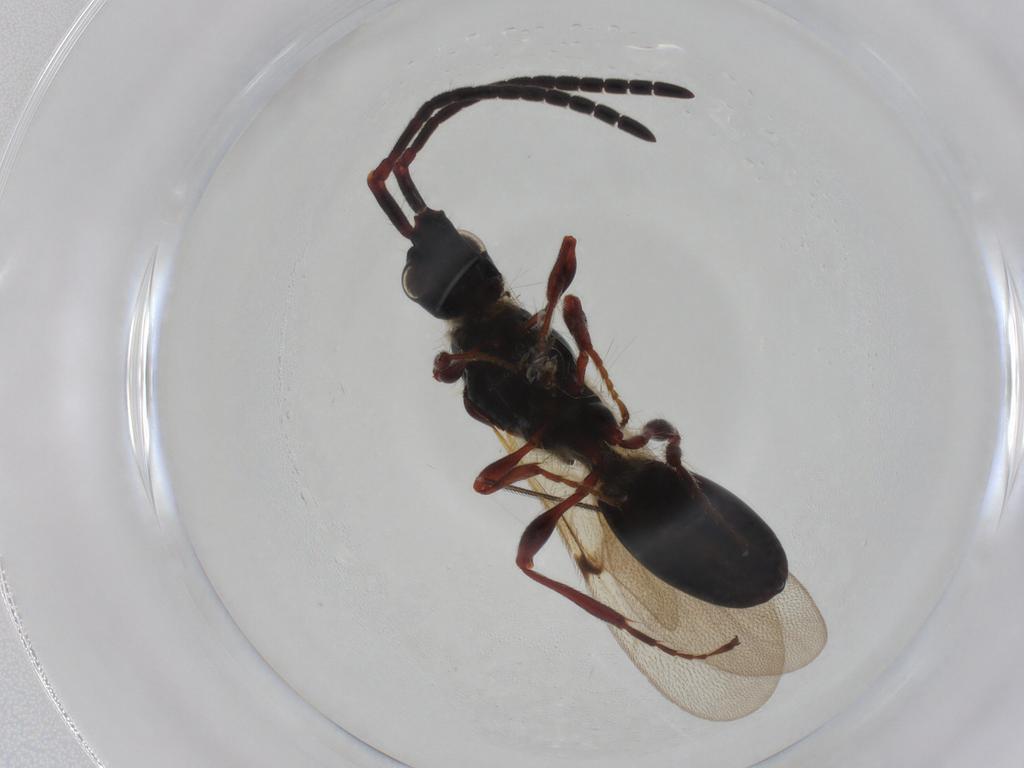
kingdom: Animalia
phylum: Arthropoda
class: Insecta
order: Hymenoptera
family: Diapriidae
